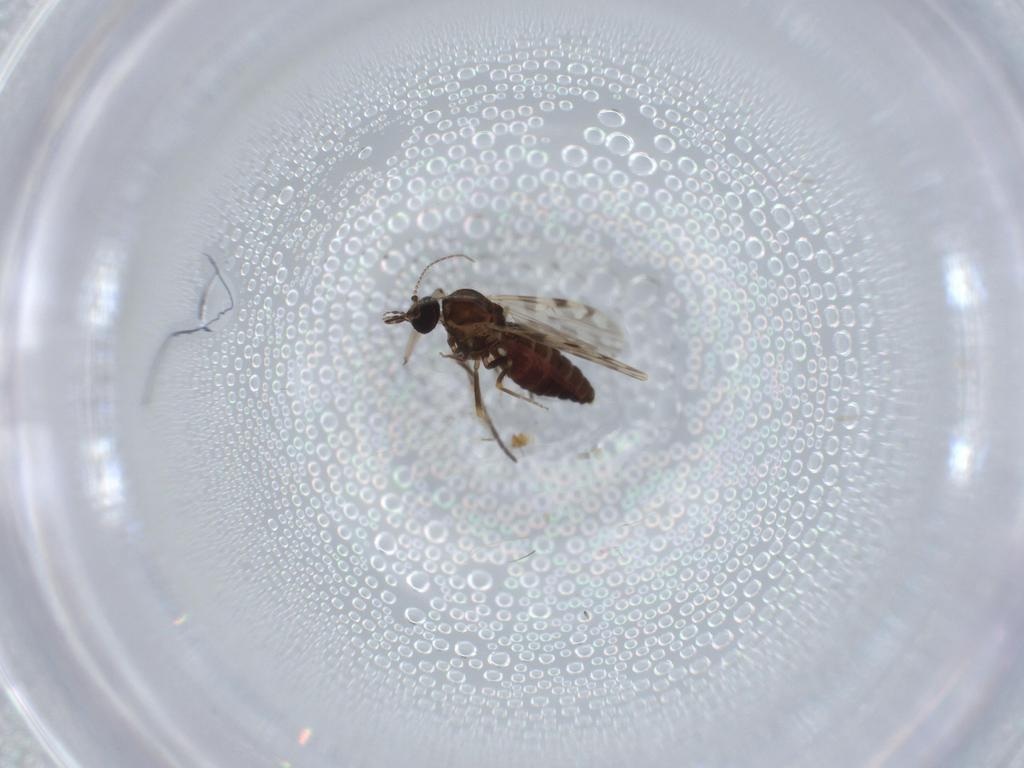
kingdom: Animalia
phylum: Arthropoda
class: Insecta
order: Diptera
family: Ceratopogonidae
